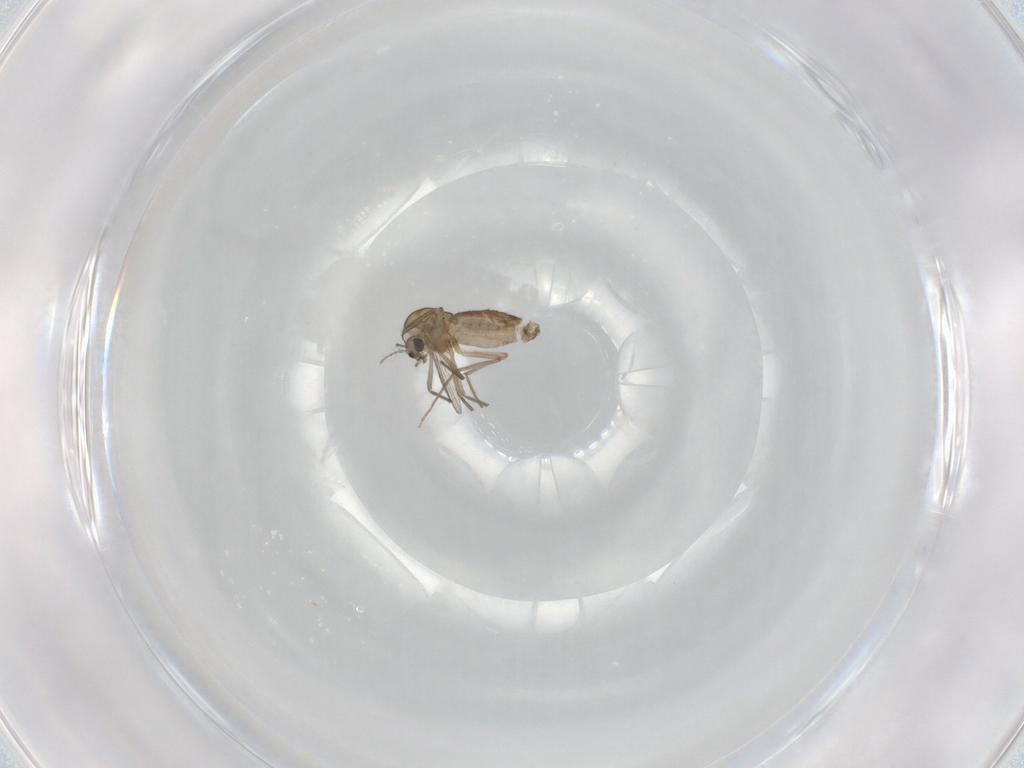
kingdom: Animalia
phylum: Arthropoda
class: Insecta
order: Diptera
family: Chironomidae
